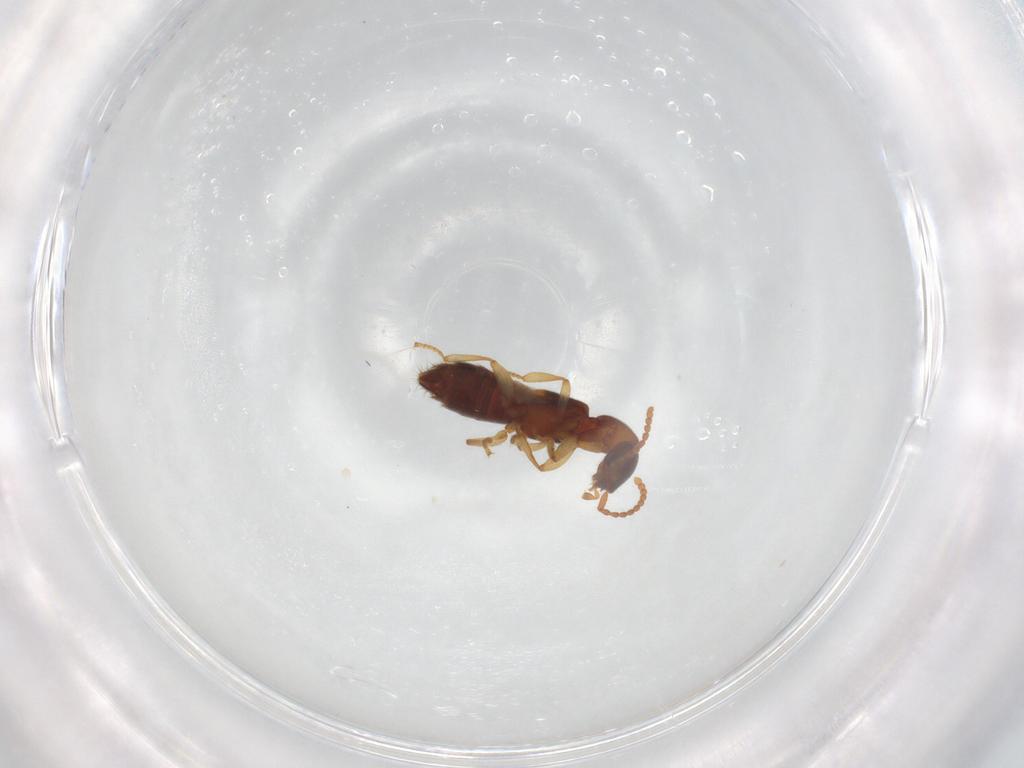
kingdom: Animalia
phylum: Arthropoda
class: Insecta
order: Coleoptera
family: Staphylinidae
